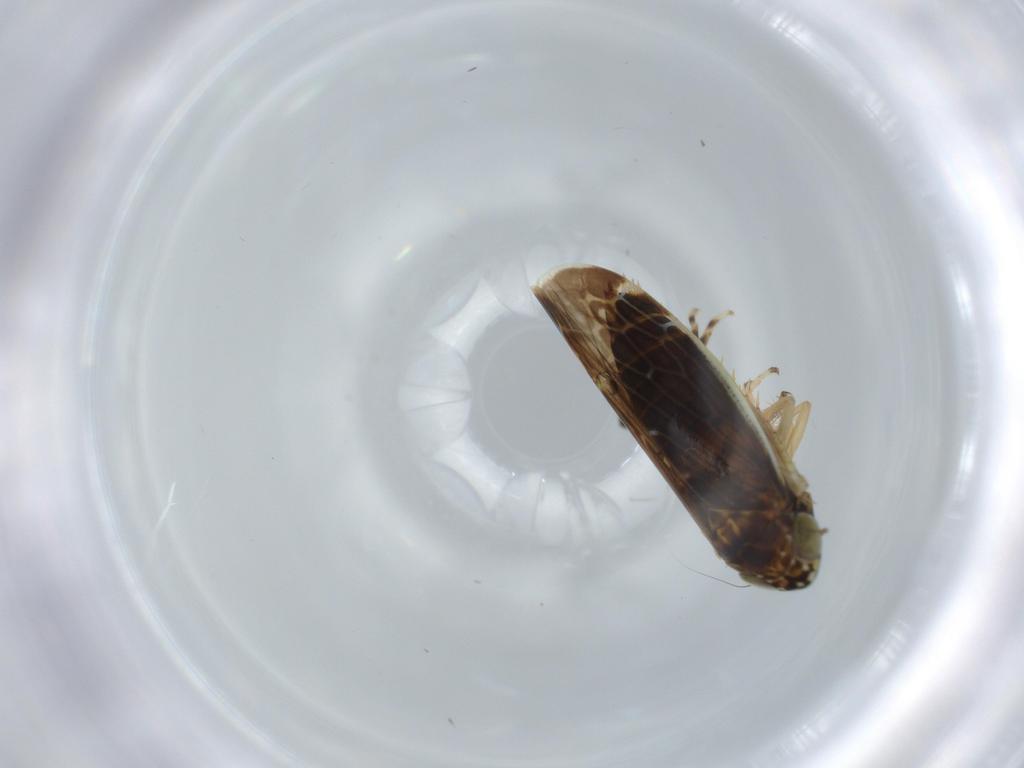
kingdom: Animalia
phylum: Arthropoda
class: Insecta
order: Hemiptera
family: Cicadellidae
